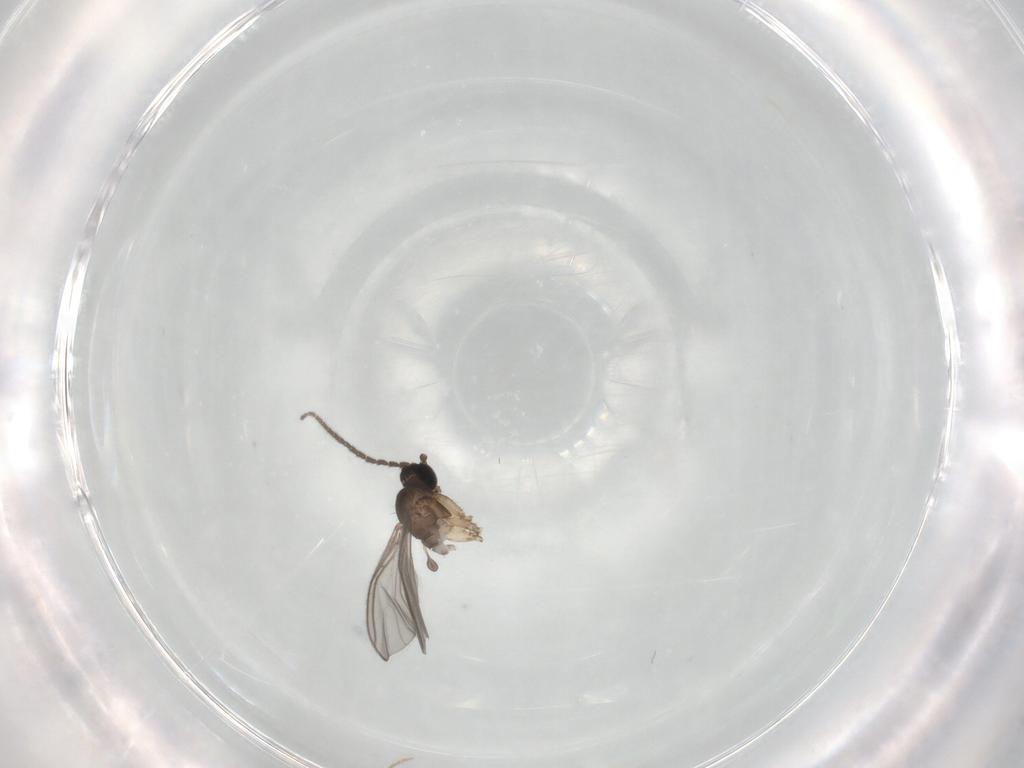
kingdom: Animalia
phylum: Arthropoda
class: Insecta
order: Diptera
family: Sciaridae
